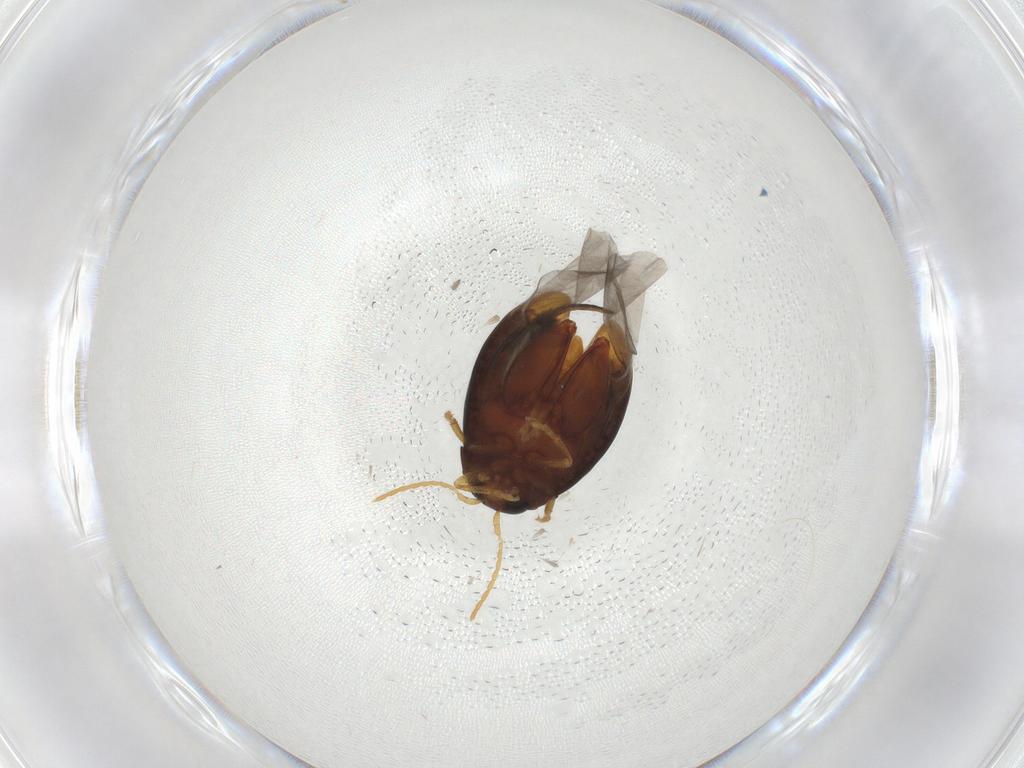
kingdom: Animalia
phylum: Arthropoda
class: Insecta
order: Coleoptera
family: Chrysomelidae
